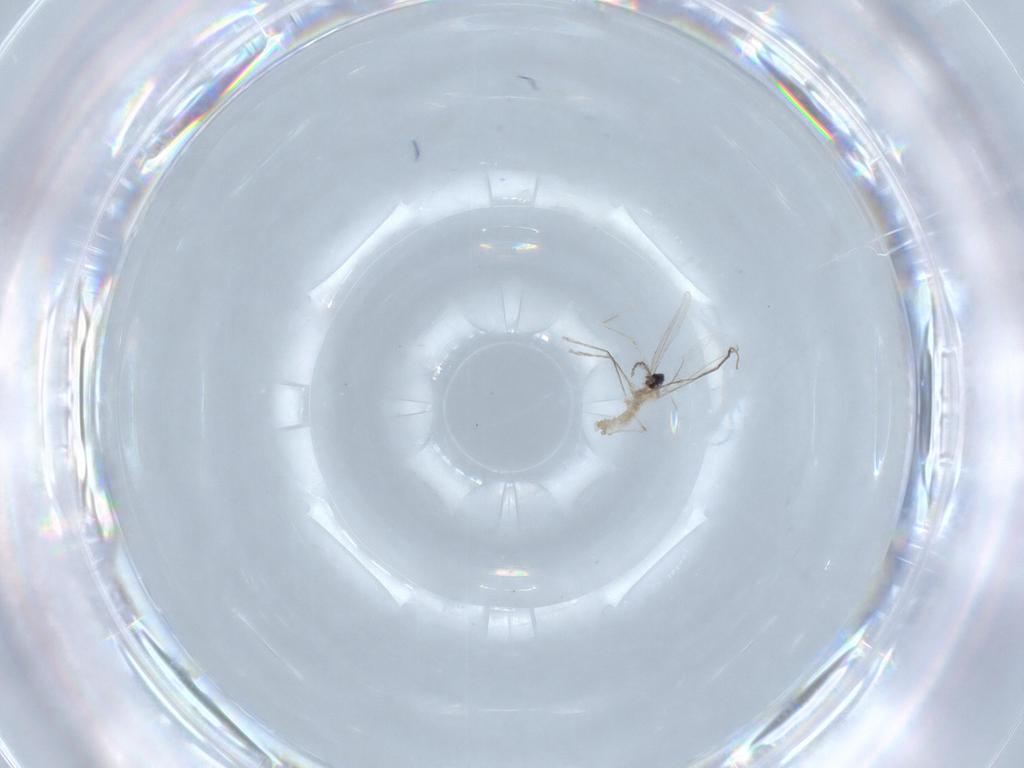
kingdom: Animalia
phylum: Arthropoda
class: Insecta
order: Diptera
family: Cecidomyiidae
